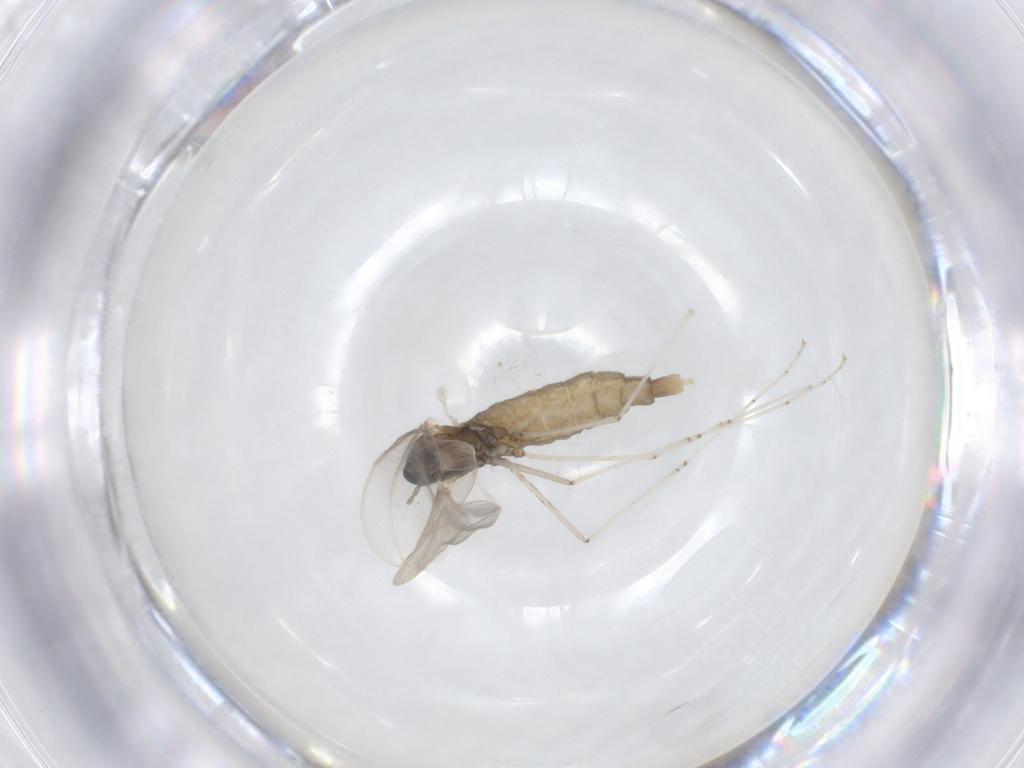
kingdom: Animalia
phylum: Arthropoda
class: Insecta
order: Diptera
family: Cecidomyiidae
